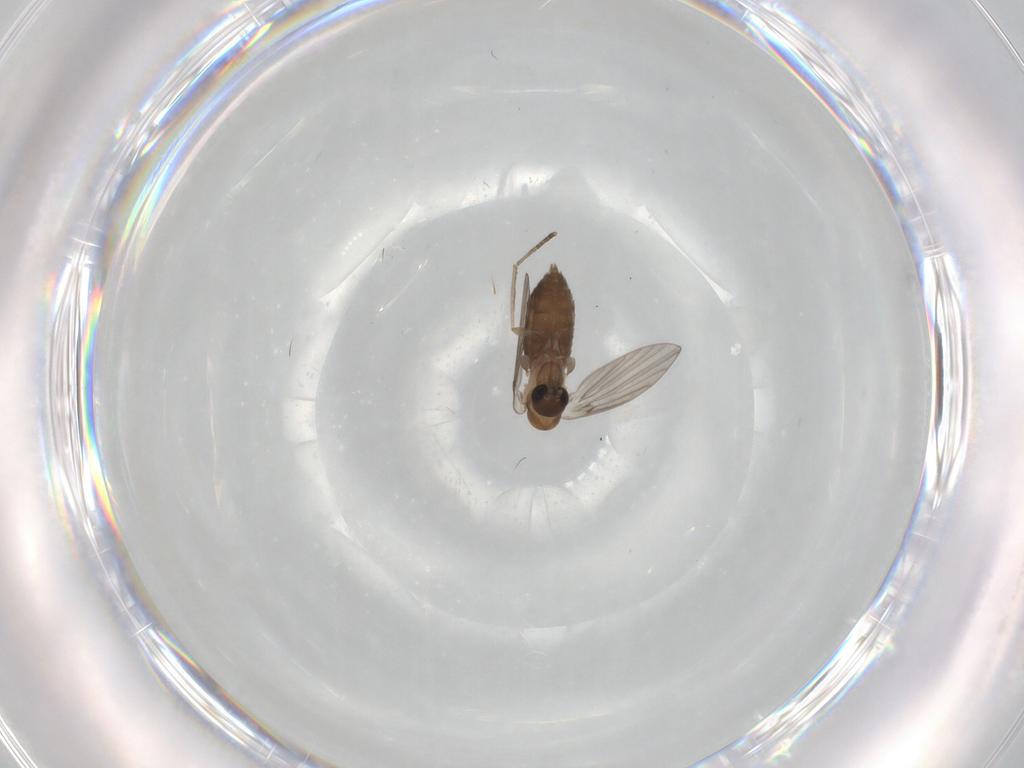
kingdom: Animalia
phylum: Arthropoda
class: Insecta
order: Diptera
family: Psychodidae
